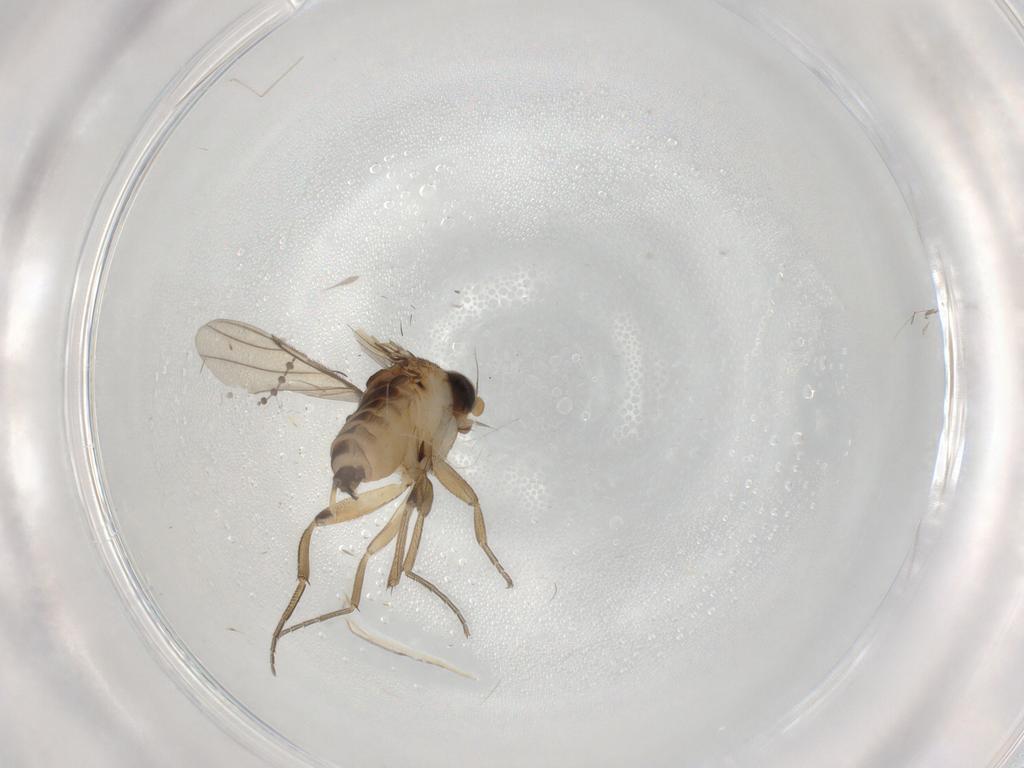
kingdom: Animalia
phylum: Arthropoda
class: Insecta
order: Diptera
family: Phoridae
